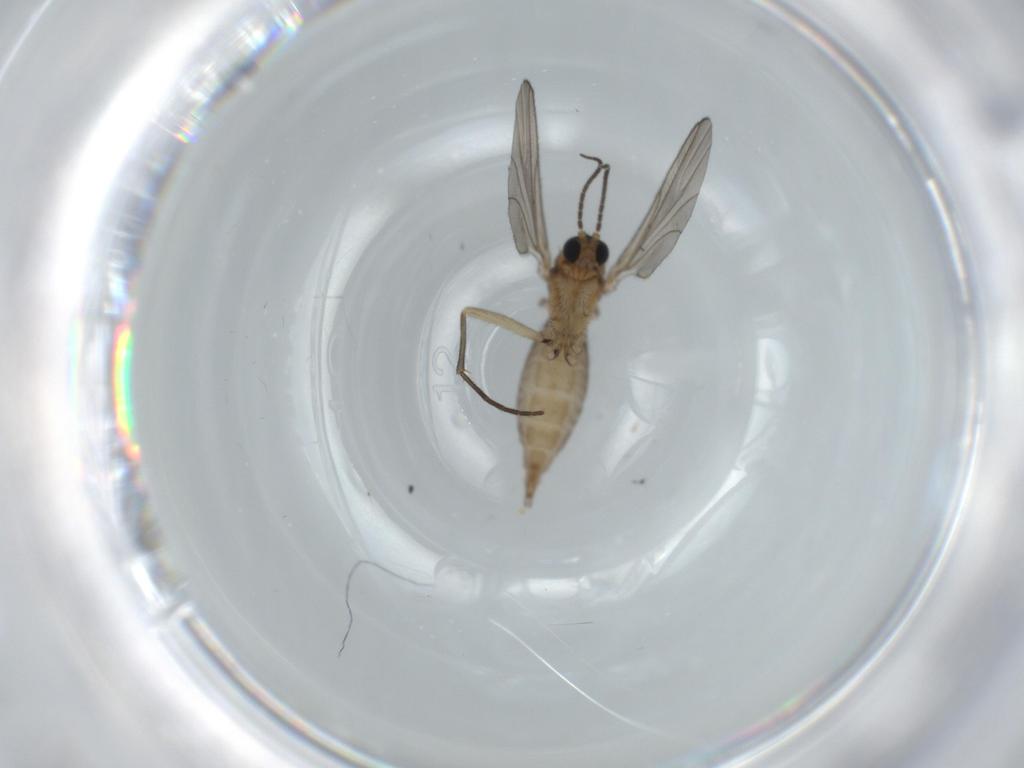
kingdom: Animalia
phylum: Arthropoda
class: Insecta
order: Diptera
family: Sciaridae
